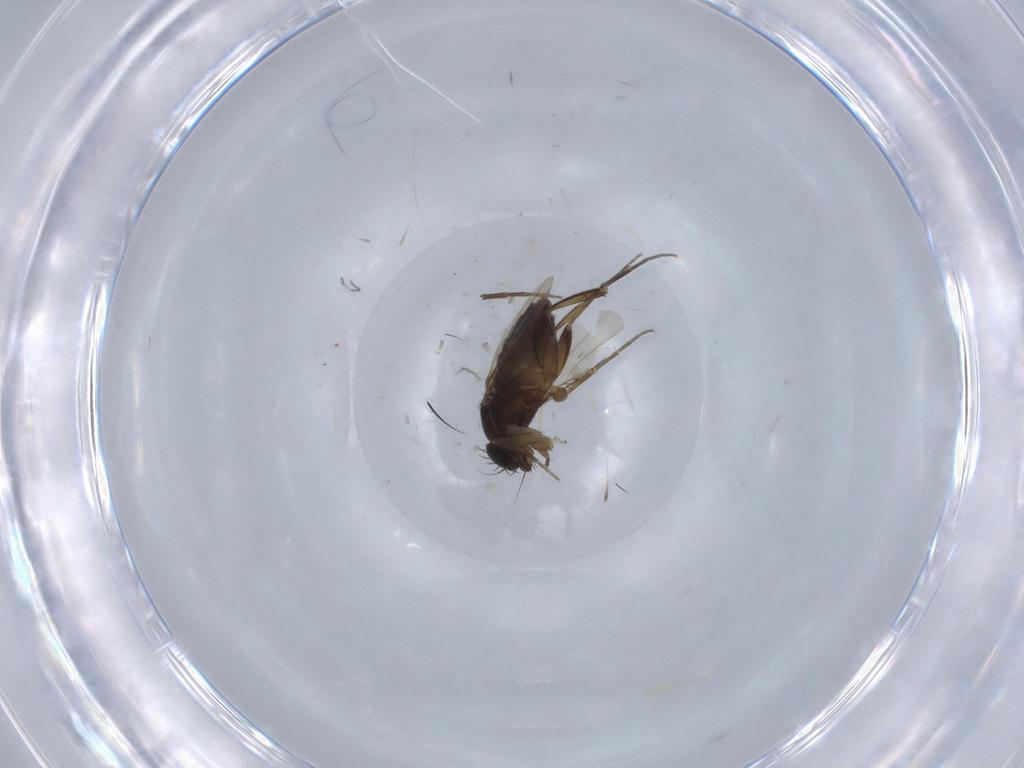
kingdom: Animalia
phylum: Arthropoda
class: Insecta
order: Diptera
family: Phoridae
